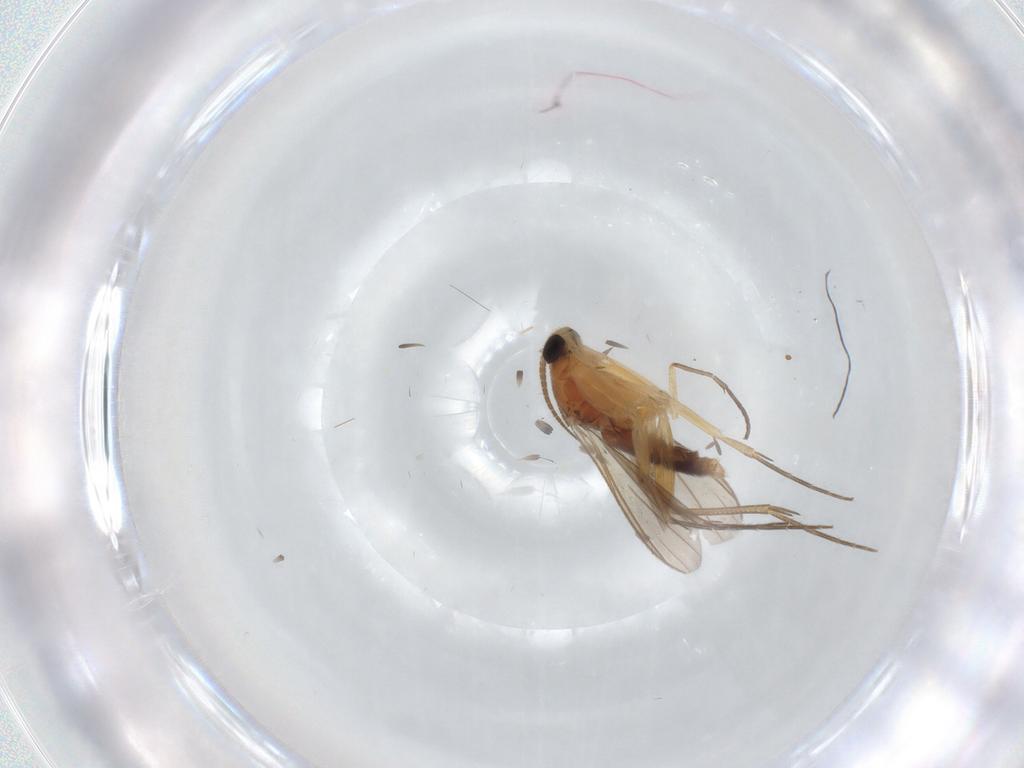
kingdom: Animalia
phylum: Arthropoda
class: Insecta
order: Diptera
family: Mycetophilidae
